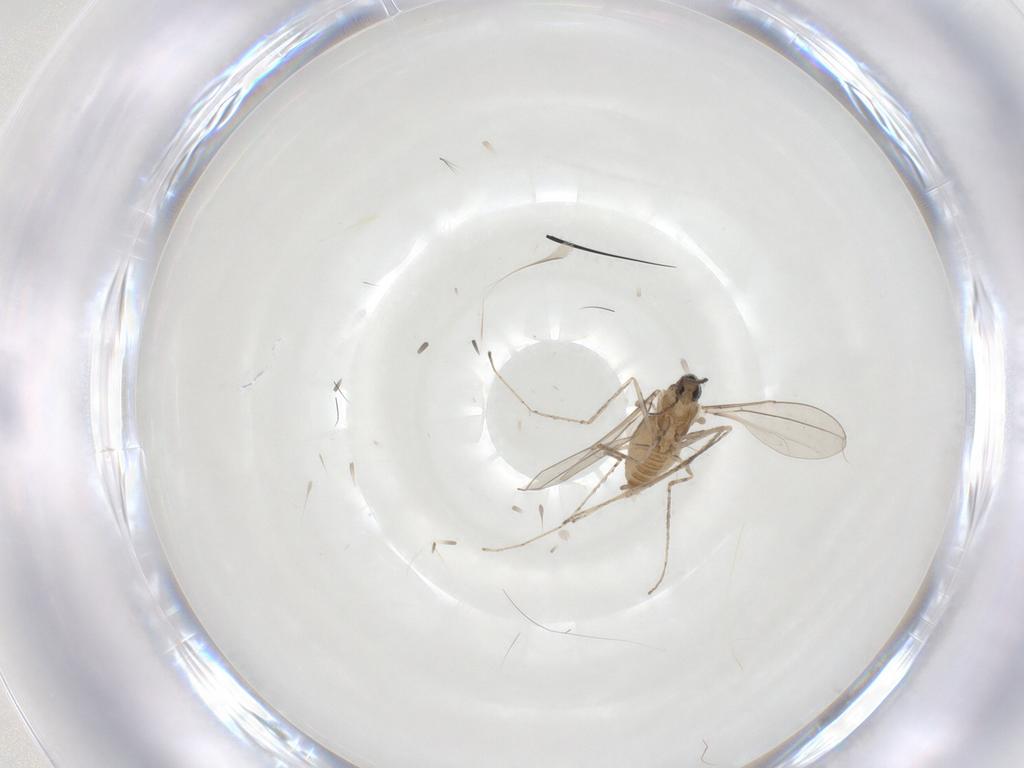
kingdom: Animalia
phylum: Arthropoda
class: Insecta
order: Diptera
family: Cecidomyiidae
